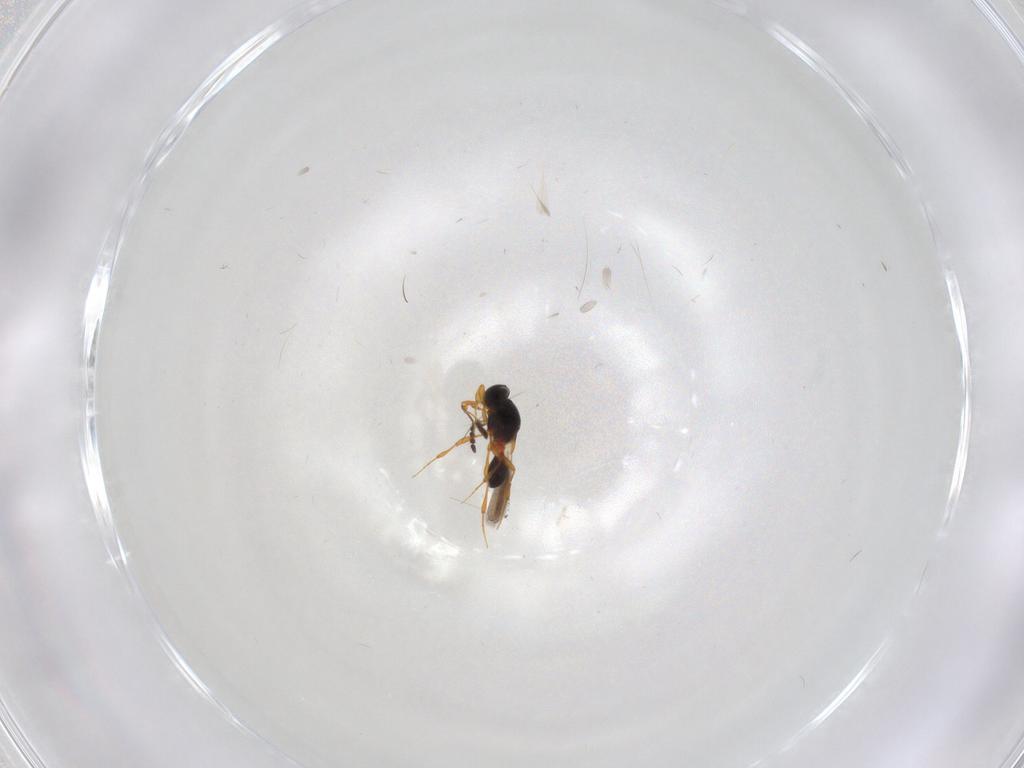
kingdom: Animalia
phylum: Arthropoda
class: Insecta
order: Hymenoptera
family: Platygastridae
